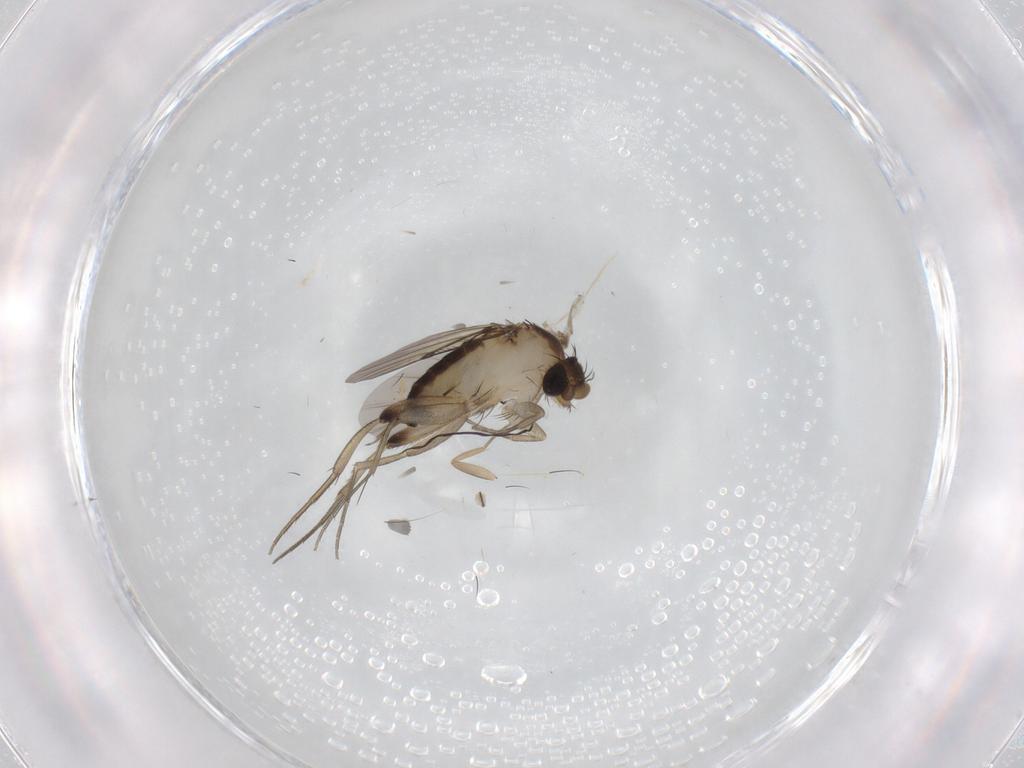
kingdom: Animalia
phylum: Arthropoda
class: Insecta
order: Diptera
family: Phoridae
